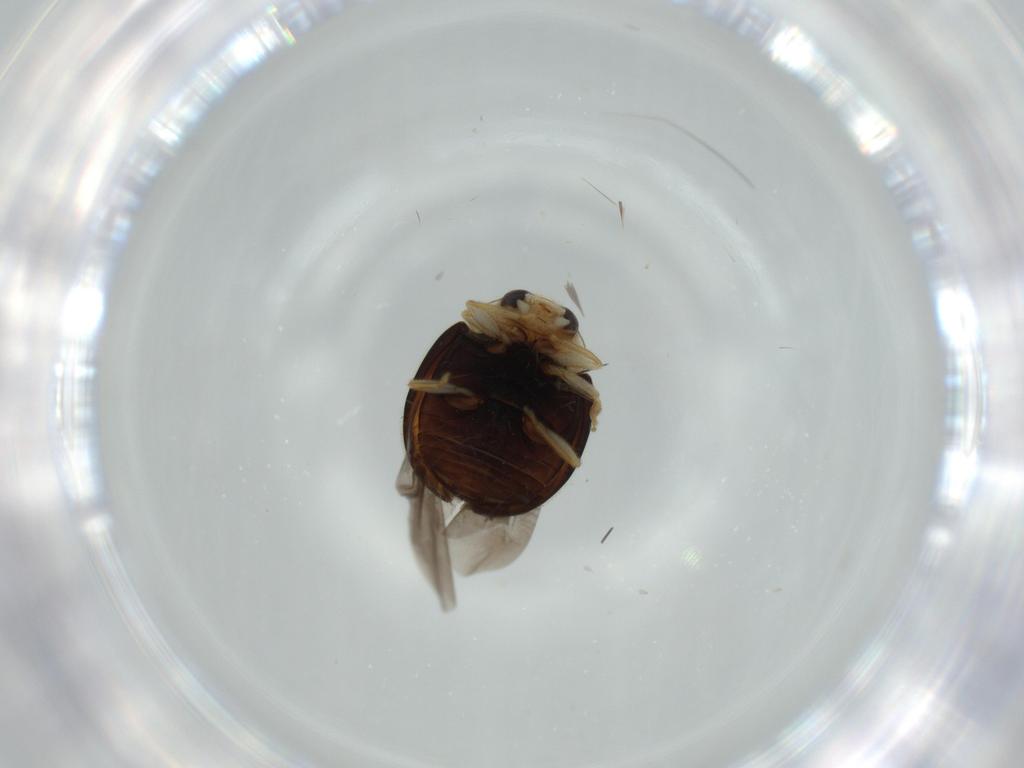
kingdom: Animalia
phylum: Arthropoda
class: Insecta
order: Coleoptera
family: Coccinellidae
